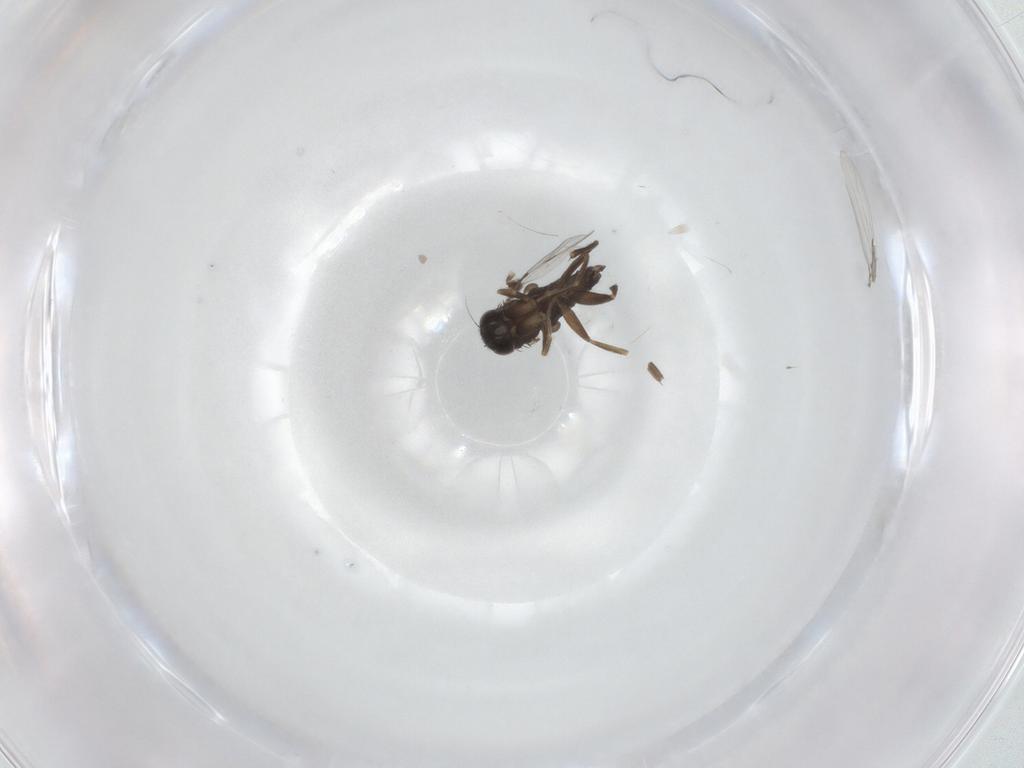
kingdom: Animalia
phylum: Arthropoda
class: Insecta
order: Diptera
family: Phoridae
